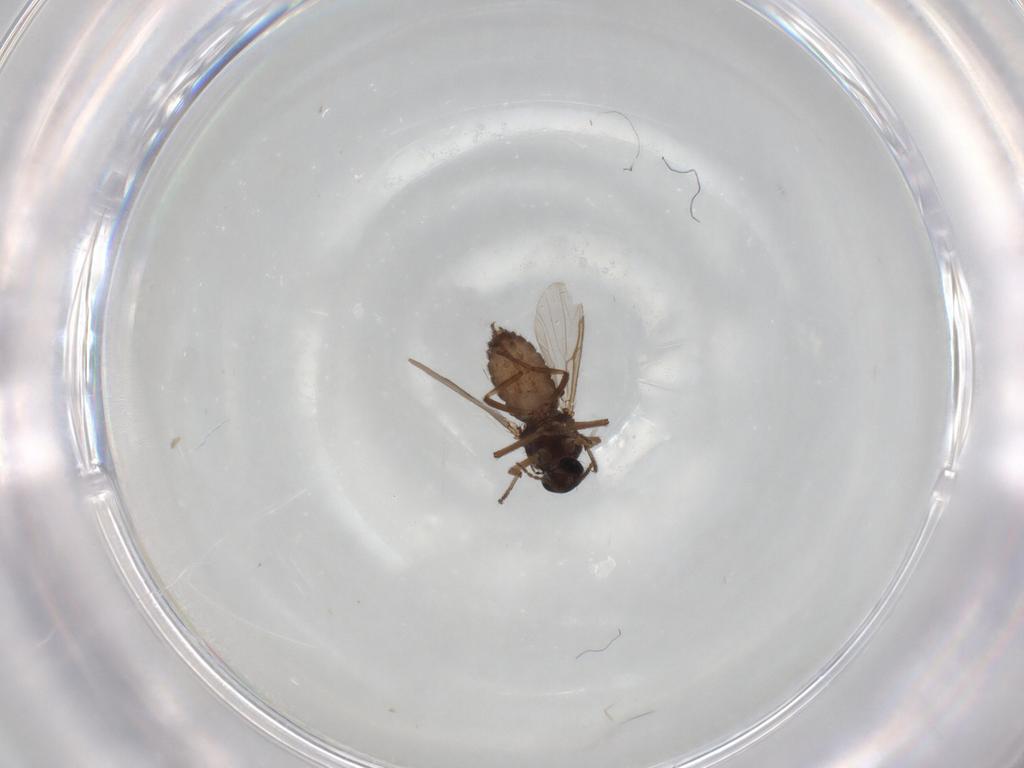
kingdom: Animalia
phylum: Arthropoda
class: Insecta
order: Diptera
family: Ceratopogonidae
